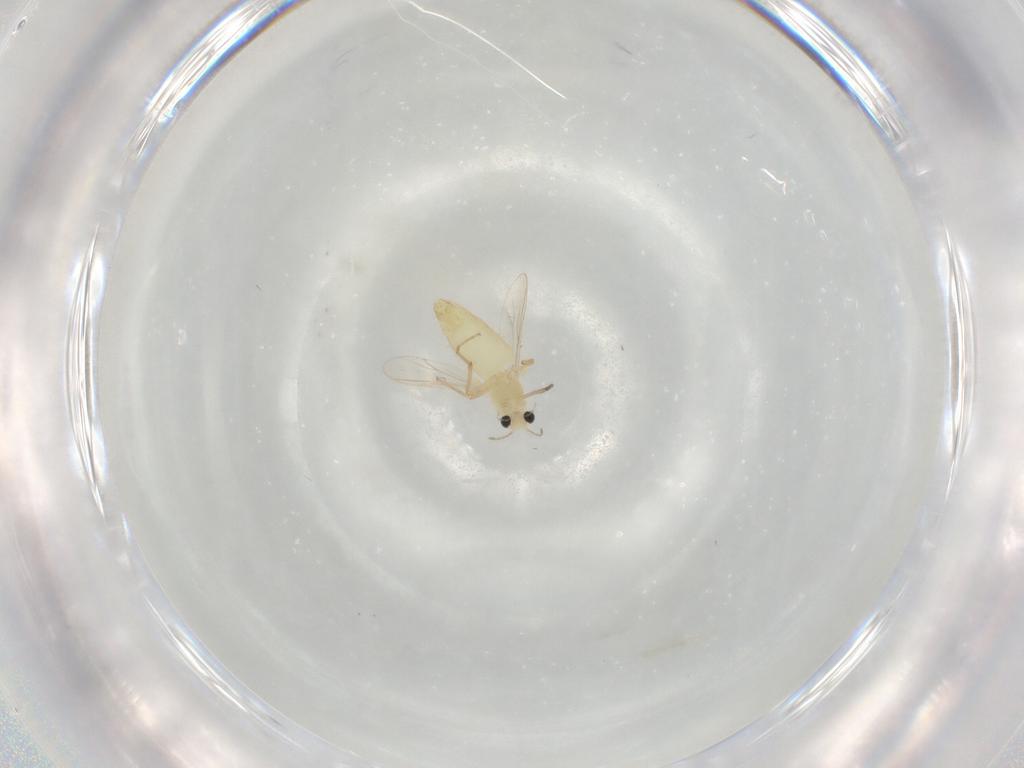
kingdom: Animalia
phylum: Arthropoda
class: Insecta
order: Diptera
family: Chironomidae
